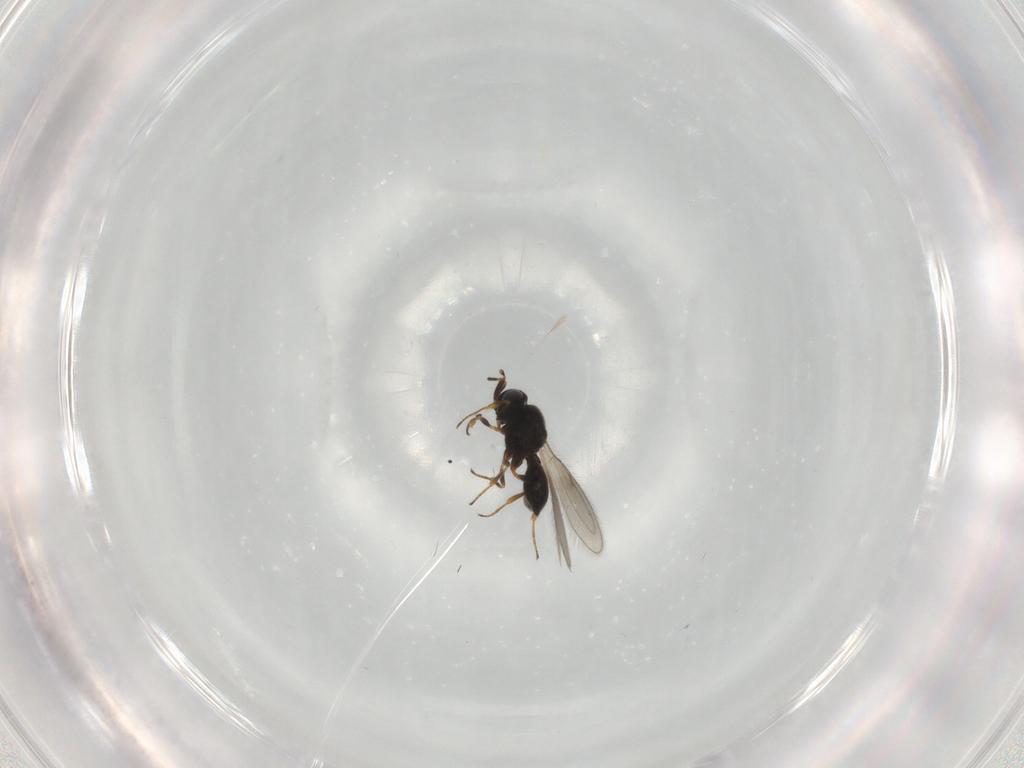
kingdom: Animalia
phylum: Arthropoda
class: Insecta
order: Hymenoptera
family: Scelionidae
